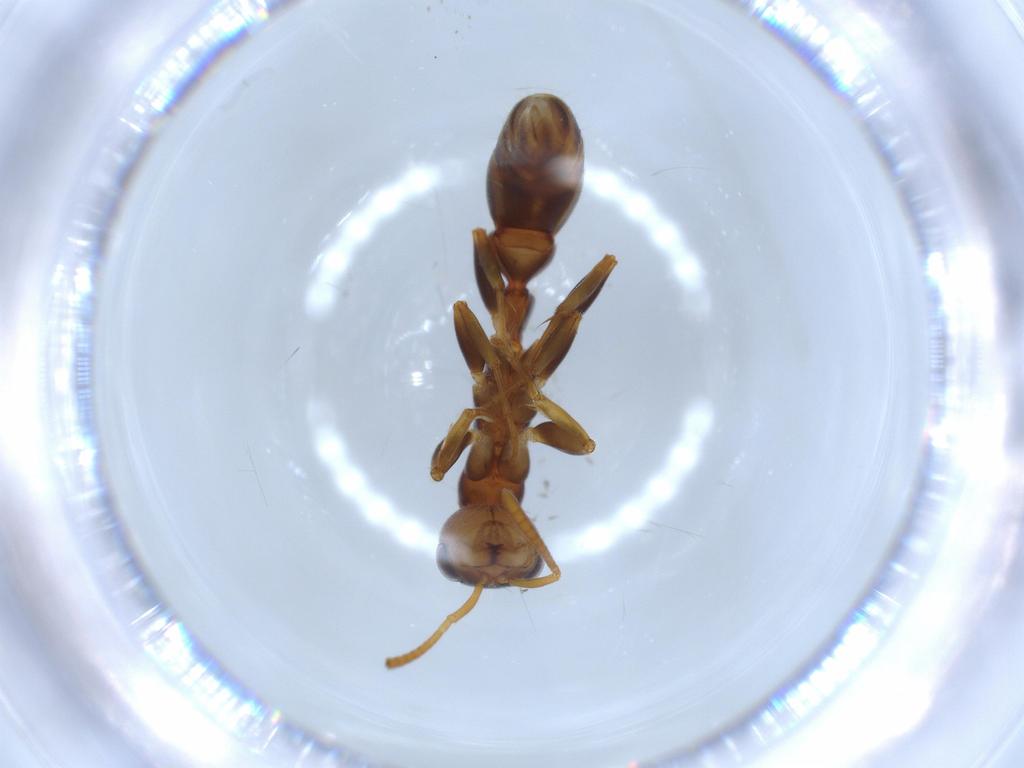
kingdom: Animalia
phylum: Arthropoda
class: Insecta
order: Hymenoptera
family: Formicidae
